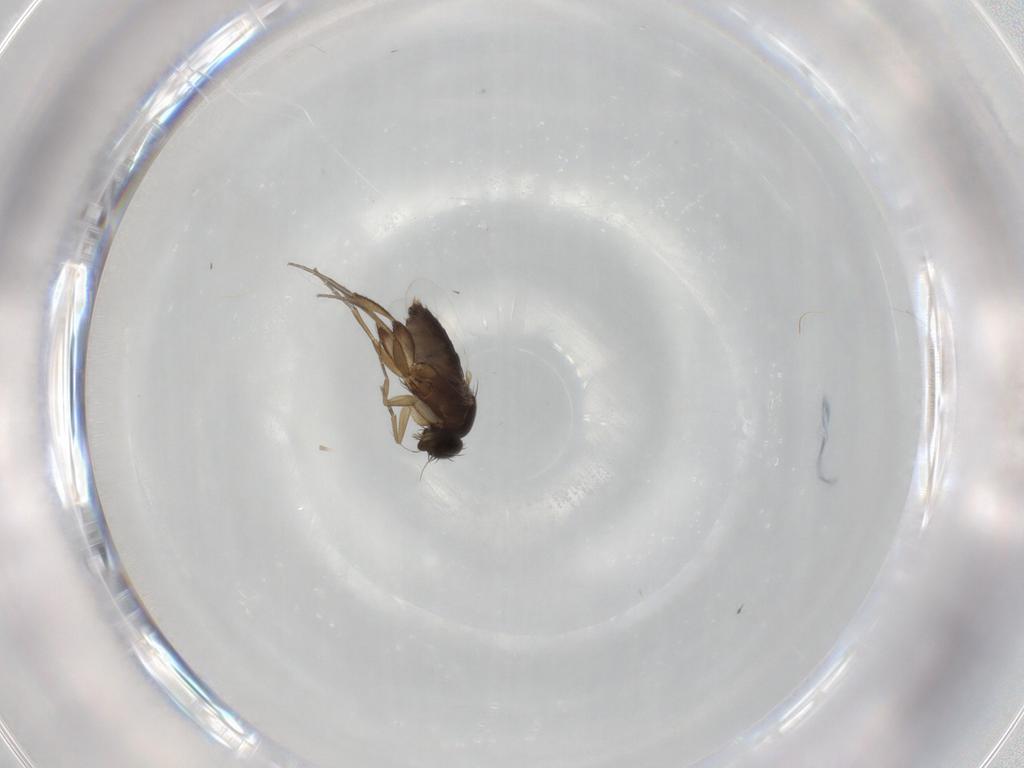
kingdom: Animalia
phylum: Arthropoda
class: Insecta
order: Diptera
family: Phoridae
